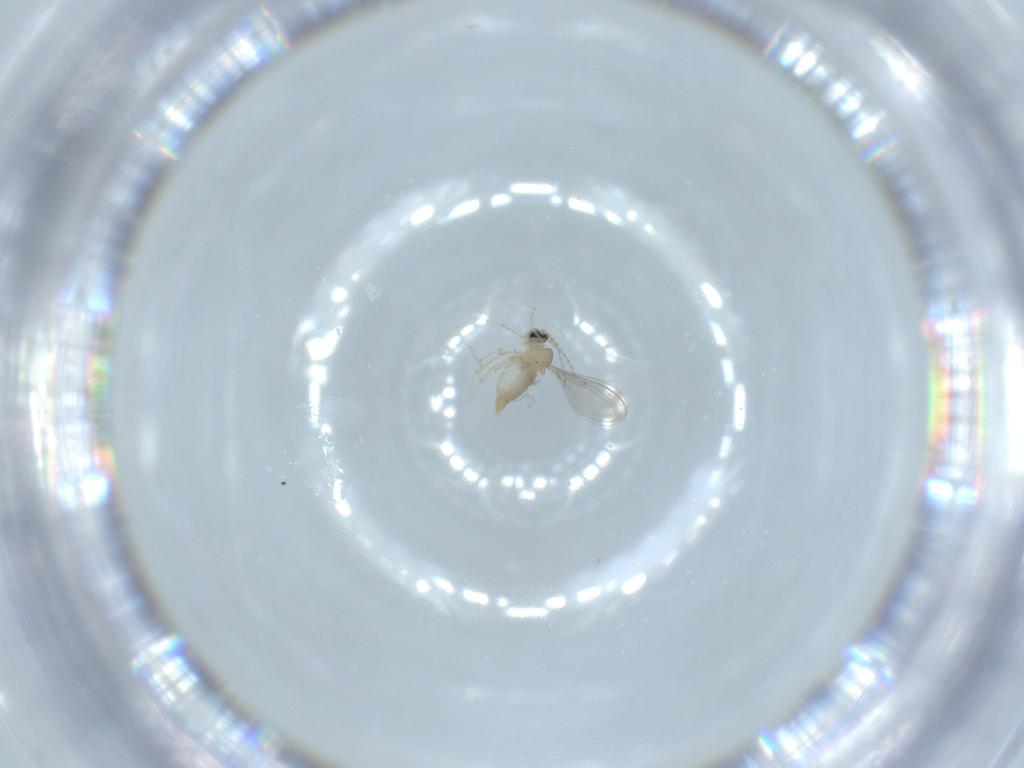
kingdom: Animalia
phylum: Arthropoda
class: Insecta
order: Diptera
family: Cecidomyiidae
